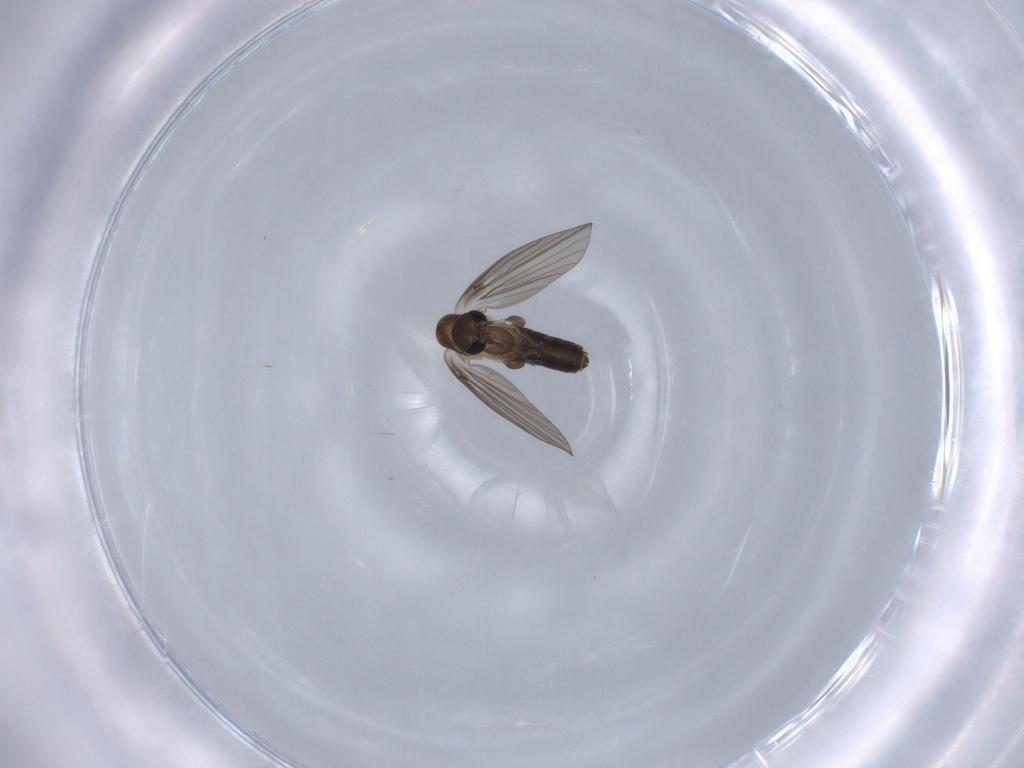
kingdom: Animalia
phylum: Arthropoda
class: Insecta
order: Diptera
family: Psychodidae
